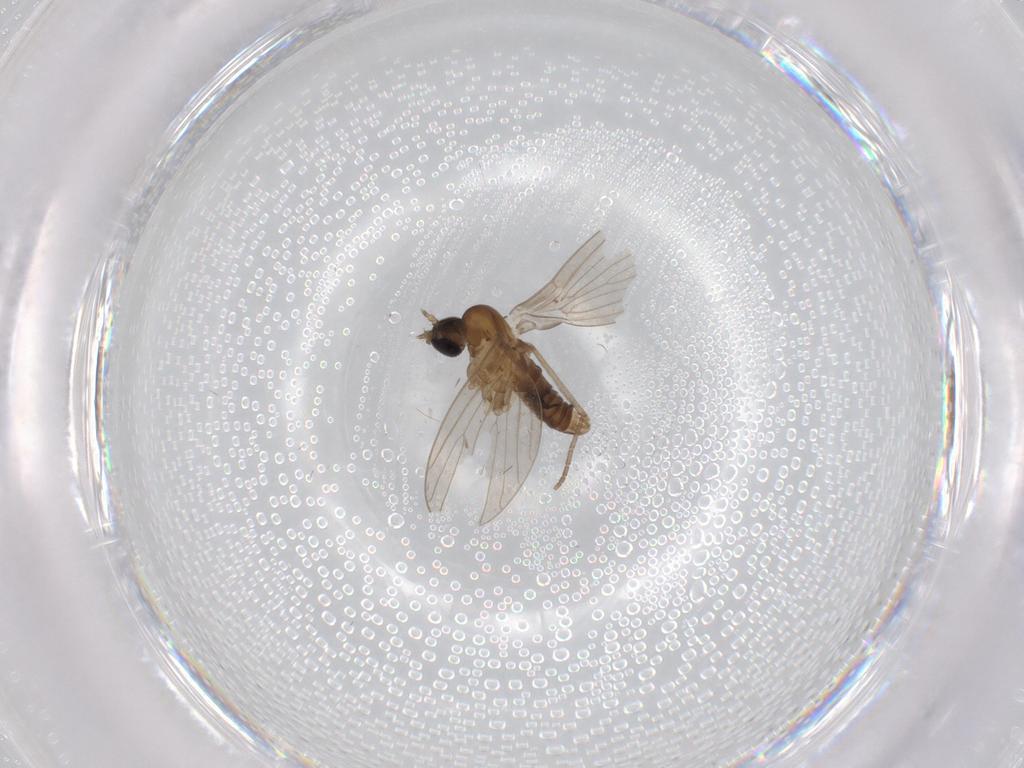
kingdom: Animalia
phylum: Arthropoda
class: Insecta
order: Diptera
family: Psychodidae
